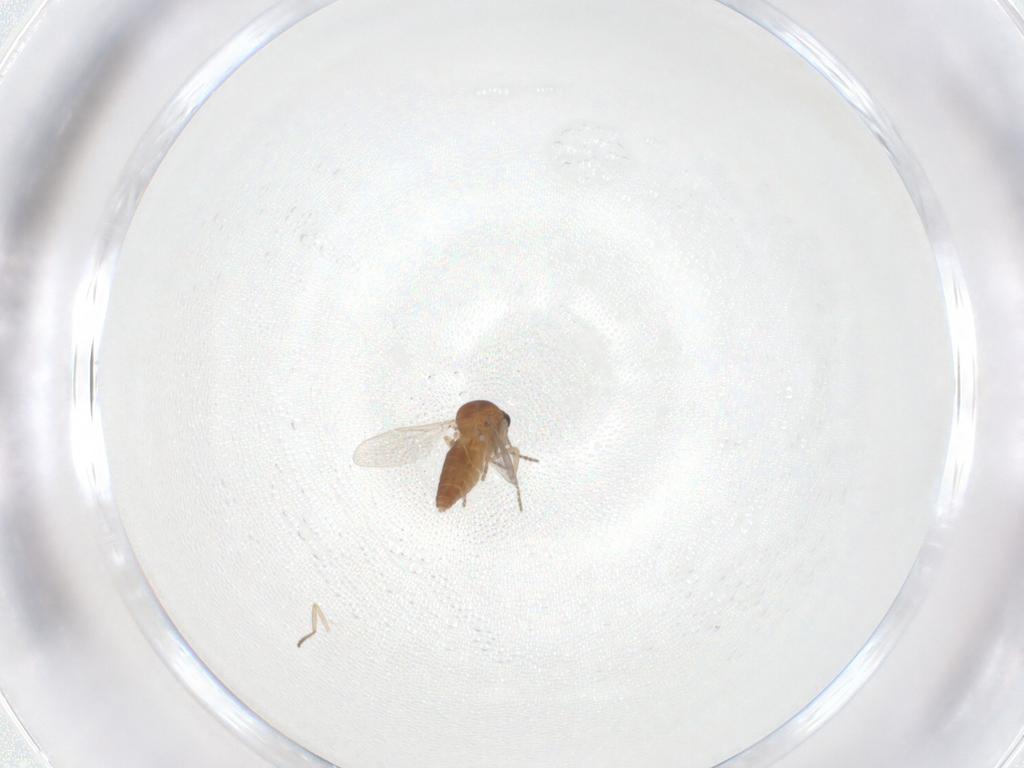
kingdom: Animalia
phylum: Arthropoda
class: Insecta
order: Diptera
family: Ceratopogonidae
